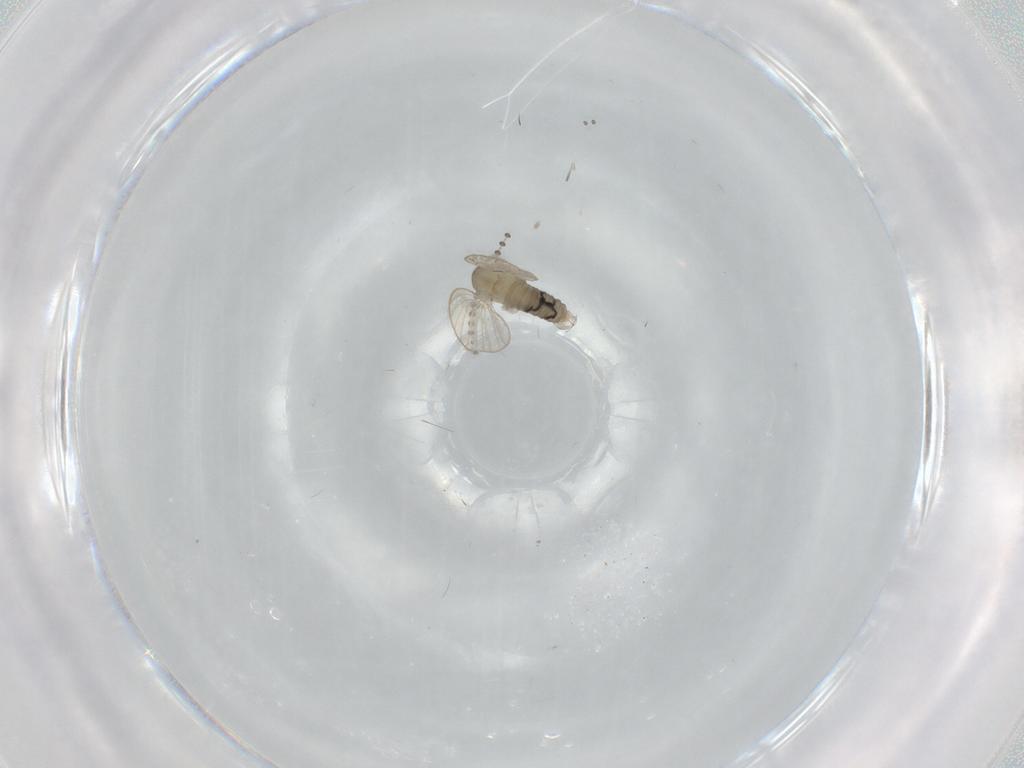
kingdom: Animalia
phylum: Arthropoda
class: Insecta
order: Diptera
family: Psychodidae
